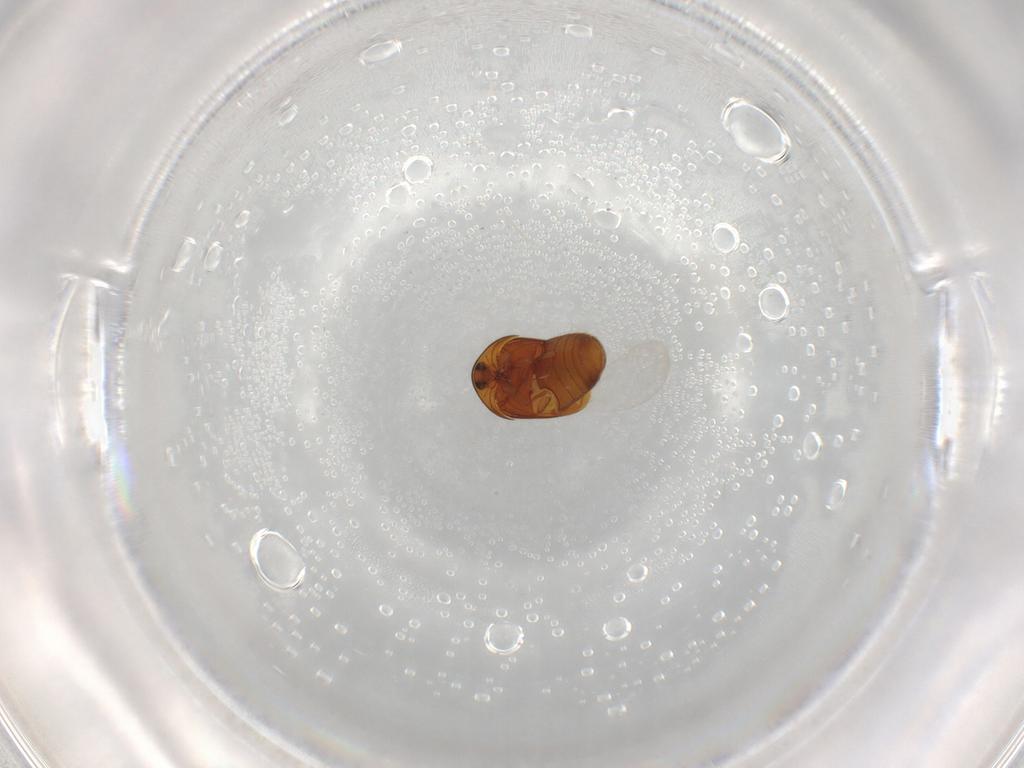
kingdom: Animalia
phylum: Arthropoda
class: Insecta
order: Coleoptera
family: Corylophidae
